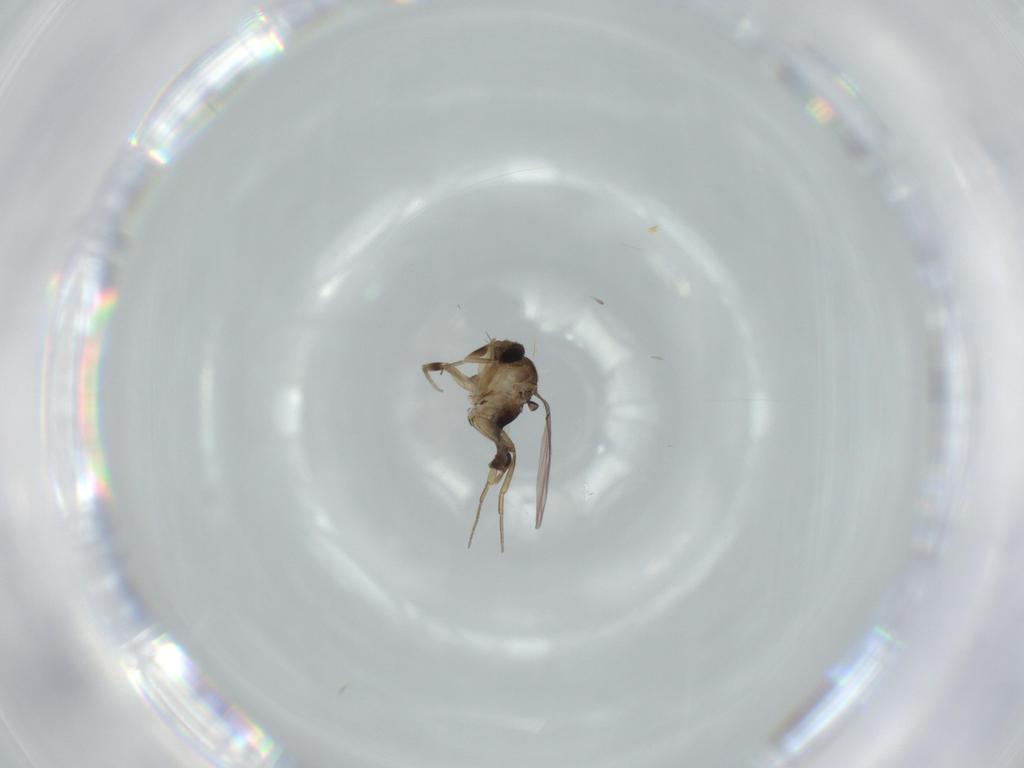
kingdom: Animalia
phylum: Arthropoda
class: Insecta
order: Diptera
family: Phoridae
